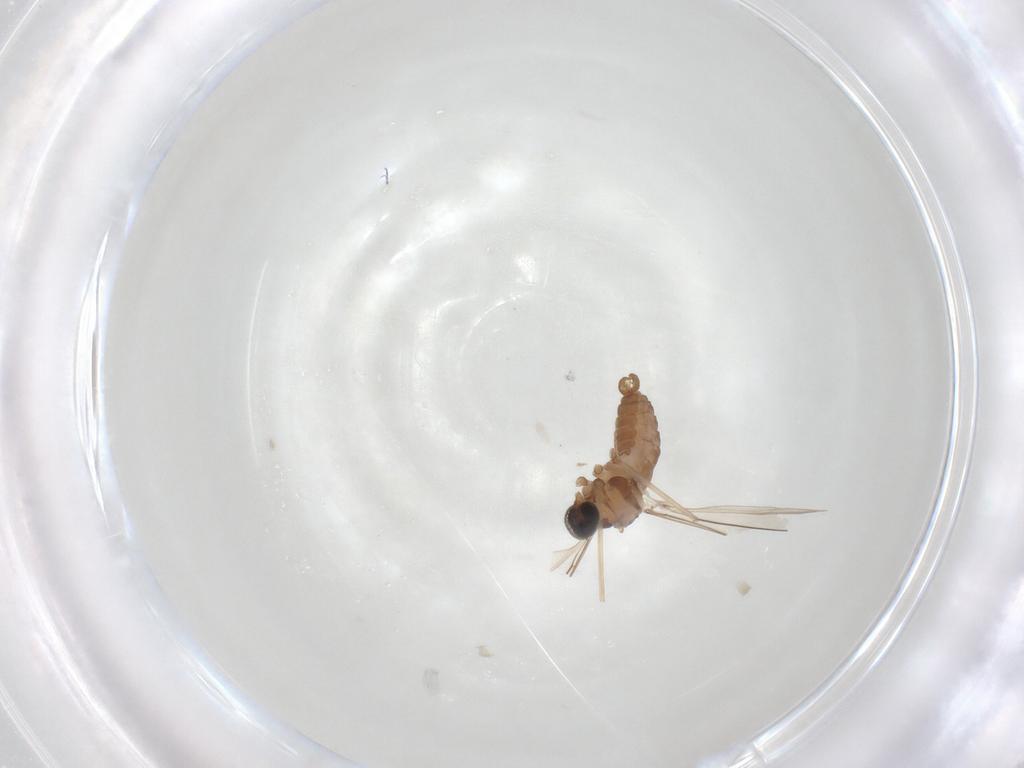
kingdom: Animalia
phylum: Arthropoda
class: Insecta
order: Diptera
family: Cecidomyiidae
